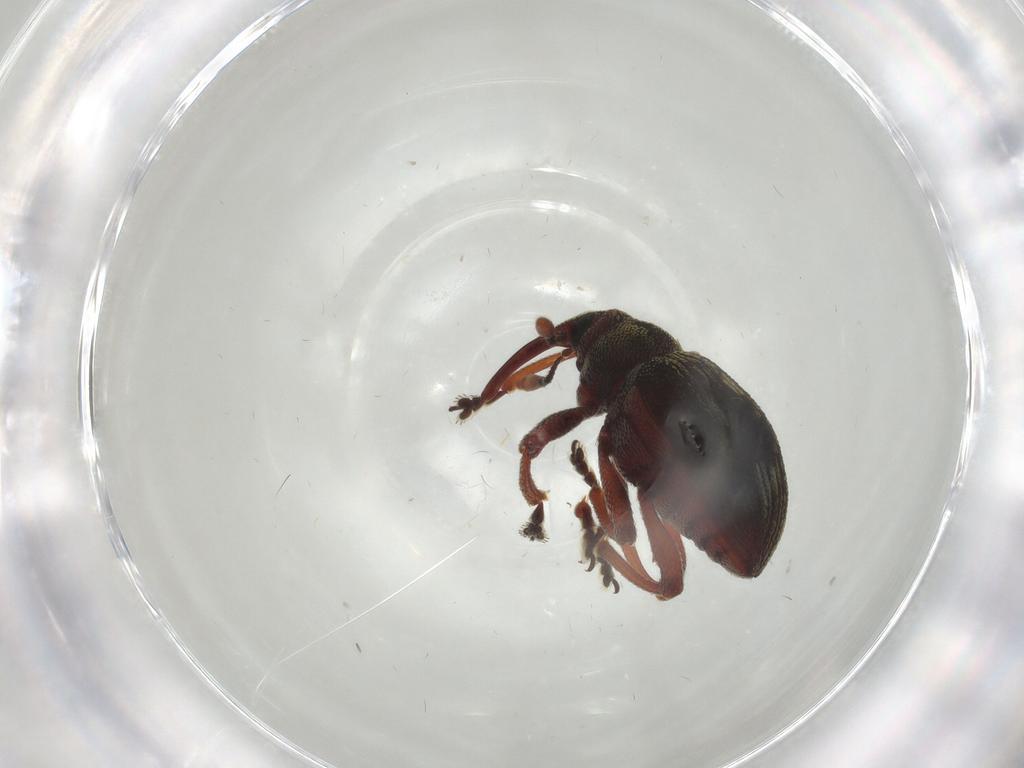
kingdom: Animalia
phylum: Arthropoda
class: Insecta
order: Coleoptera
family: Curculionidae
